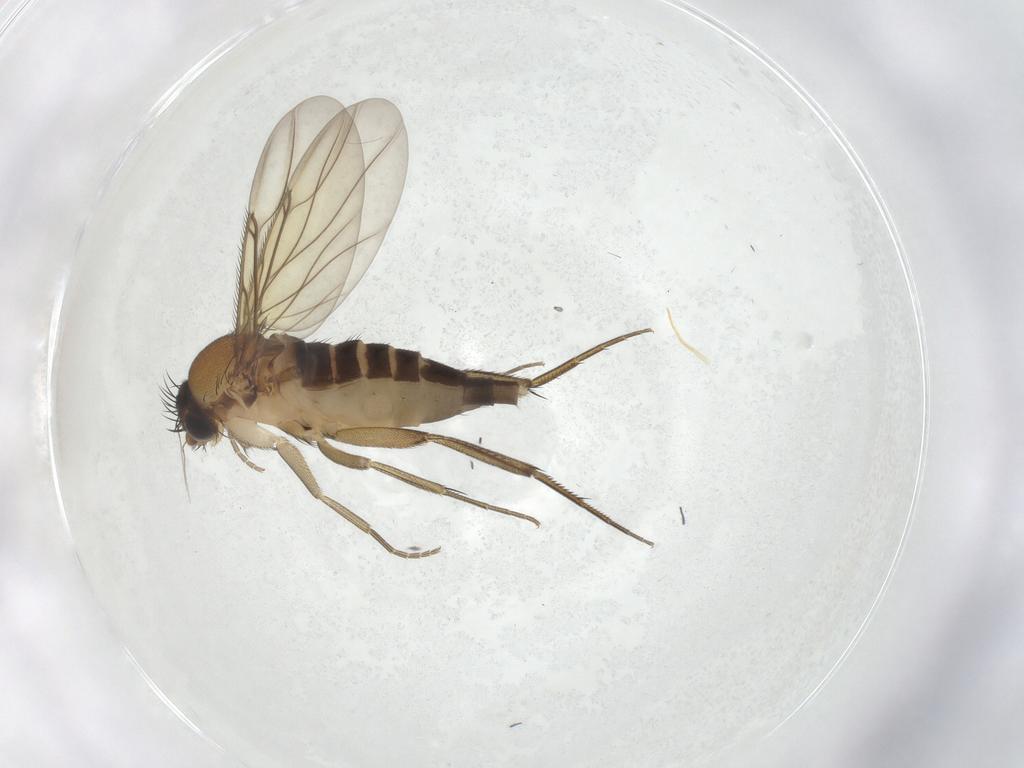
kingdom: Animalia
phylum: Arthropoda
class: Insecta
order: Diptera
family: Phoridae
